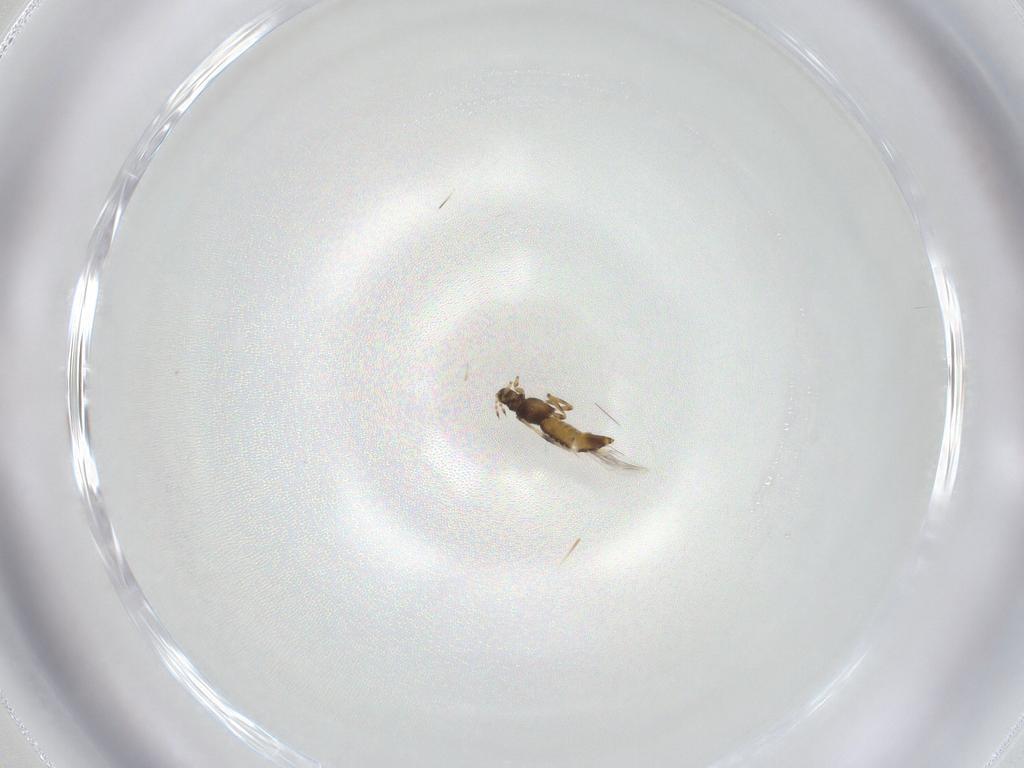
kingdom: Animalia
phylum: Arthropoda
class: Insecta
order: Thysanoptera
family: Thripidae
